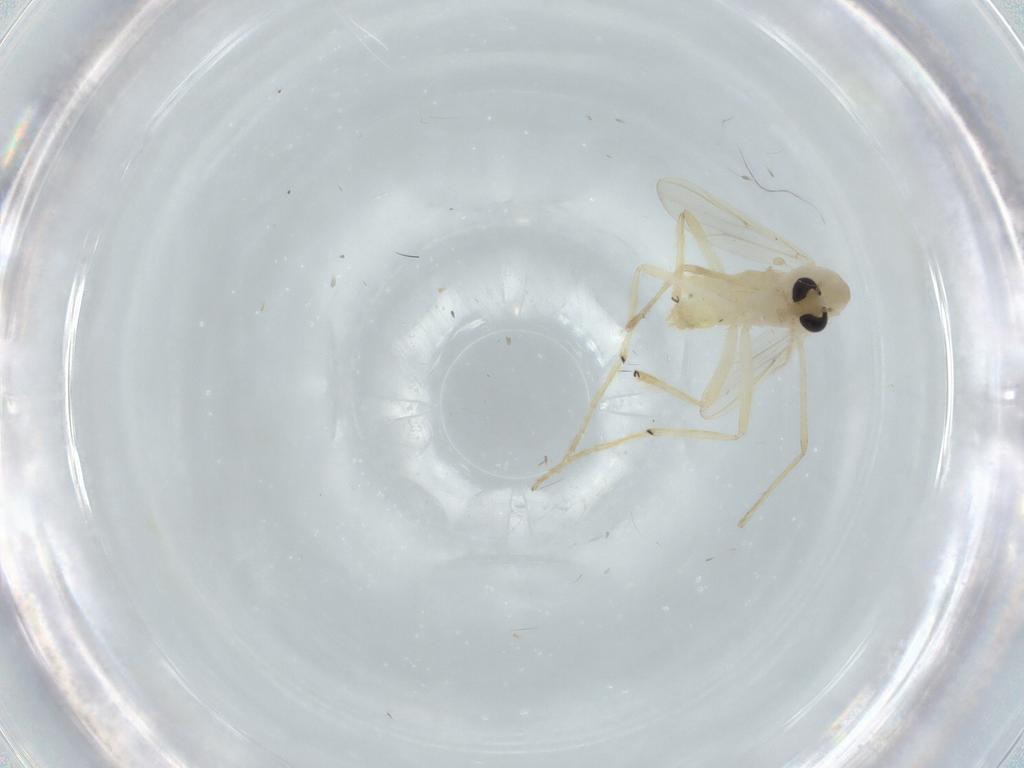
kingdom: Animalia
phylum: Arthropoda
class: Insecta
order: Diptera
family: Chironomidae
